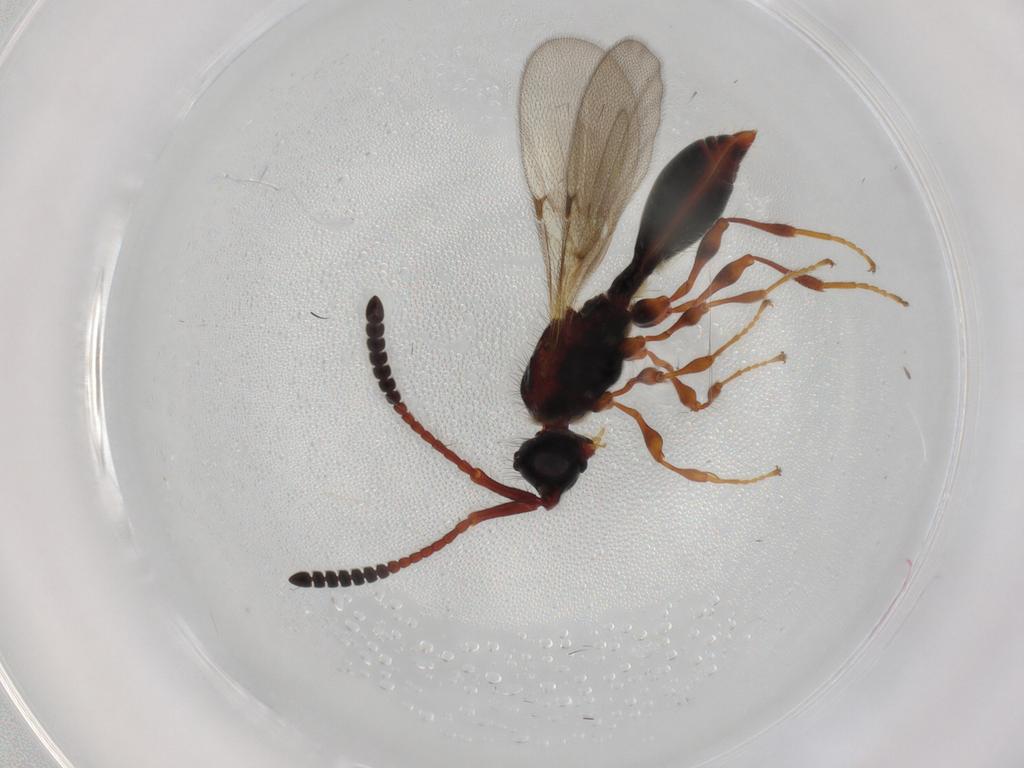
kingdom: Animalia
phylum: Arthropoda
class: Insecta
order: Hymenoptera
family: Diapriidae
